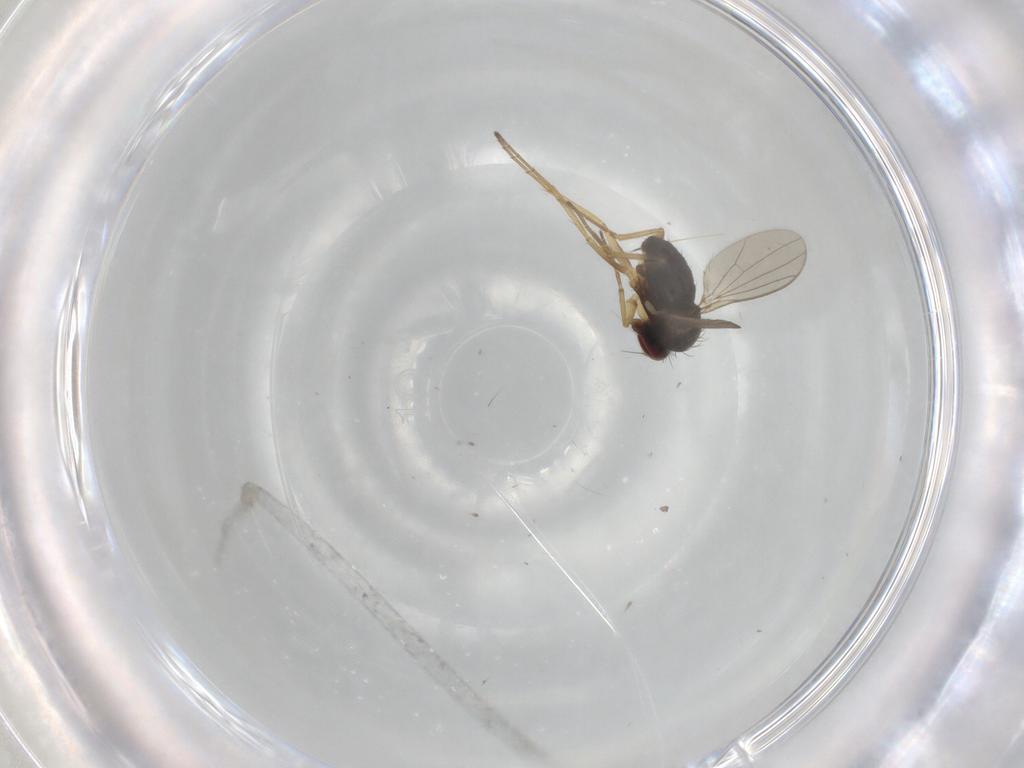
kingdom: Animalia
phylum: Arthropoda
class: Insecta
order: Diptera
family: Dolichopodidae
